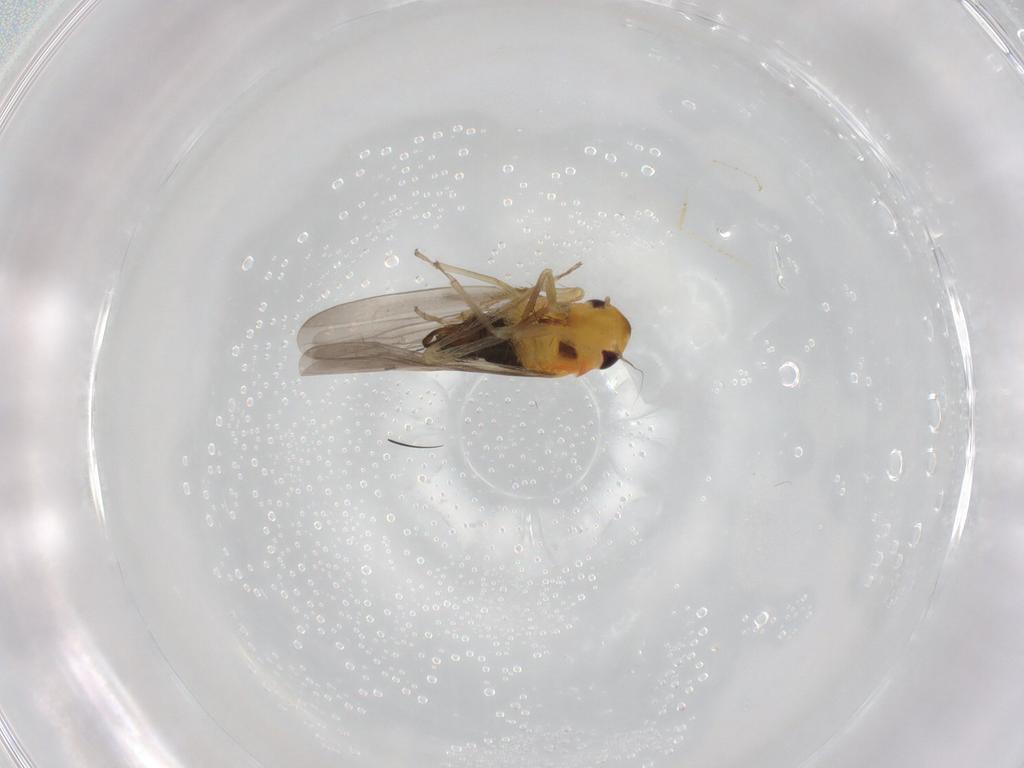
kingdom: Animalia
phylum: Arthropoda
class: Insecta
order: Hemiptera
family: Cicadellidae
